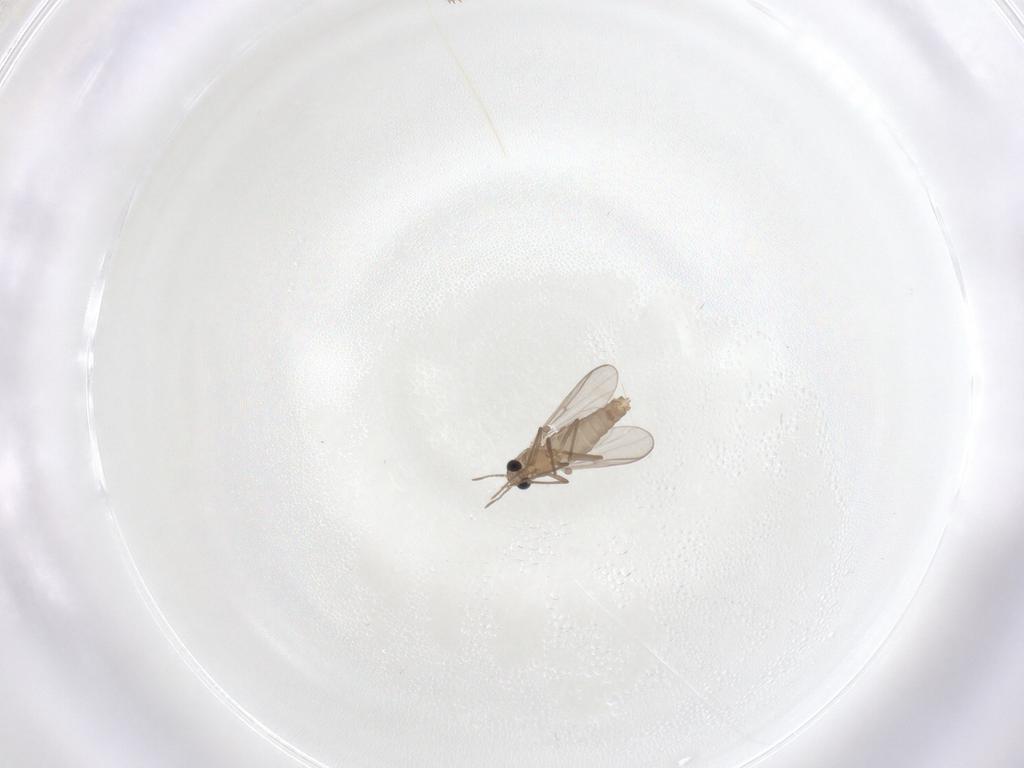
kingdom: Animalia
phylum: Arthropoda
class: Insecta
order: Diptera
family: Chironomidae
